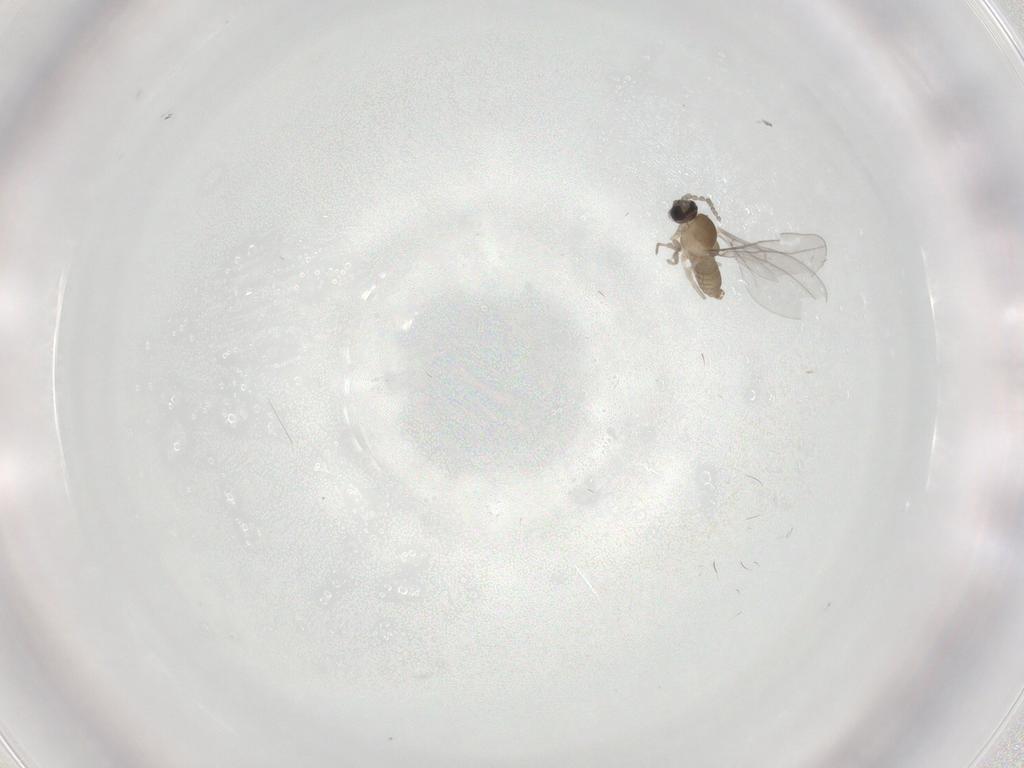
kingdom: Animalia
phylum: Arthropoda
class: Insecta
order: Diptera
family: Cecidomyiidae
